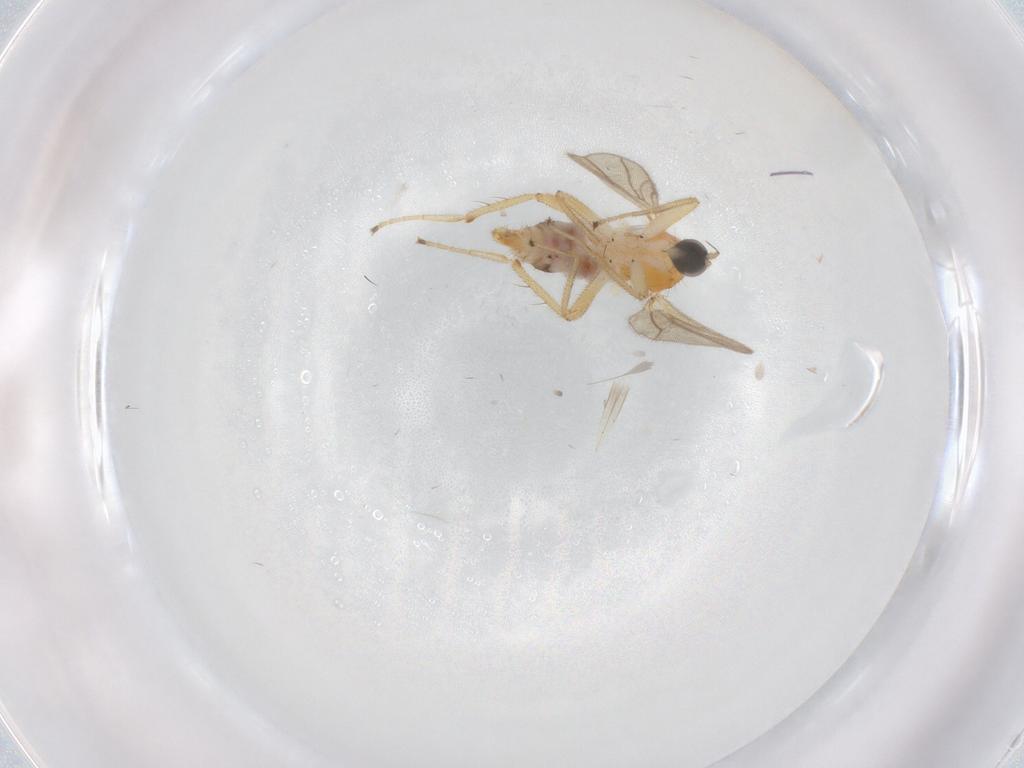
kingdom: Animalia
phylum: Arthropoda
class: Insecta
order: Diptera
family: Hybotidae
